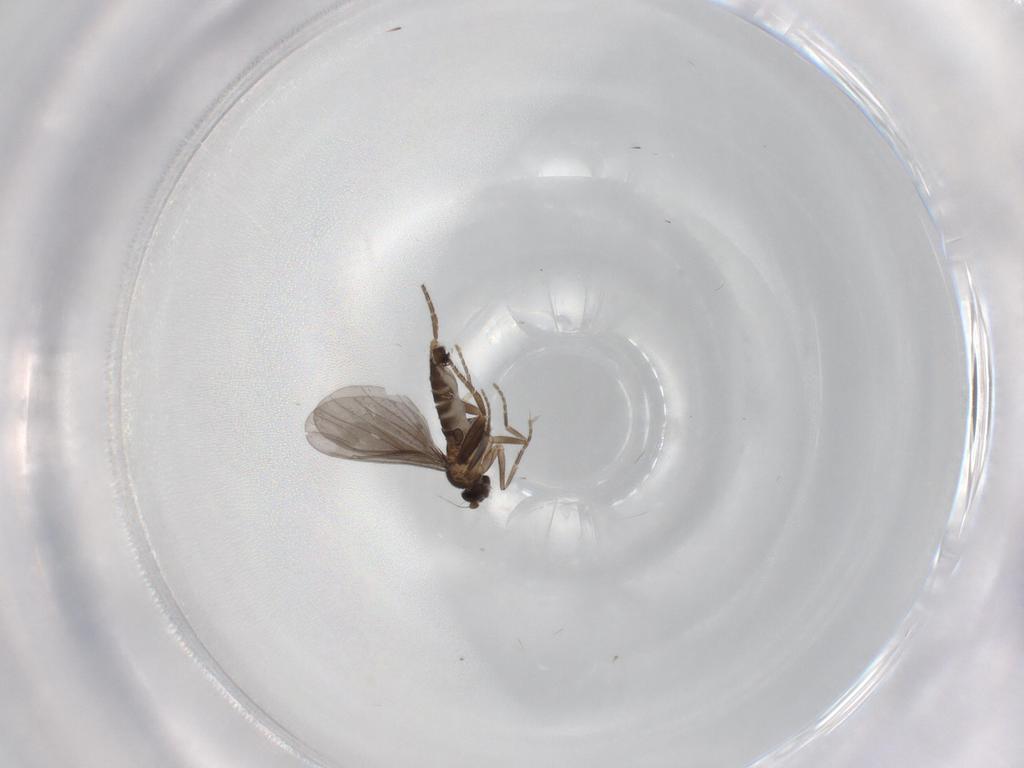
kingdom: Animalia
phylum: Arthropoda
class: Insecta
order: Diptera
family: Phoridae
